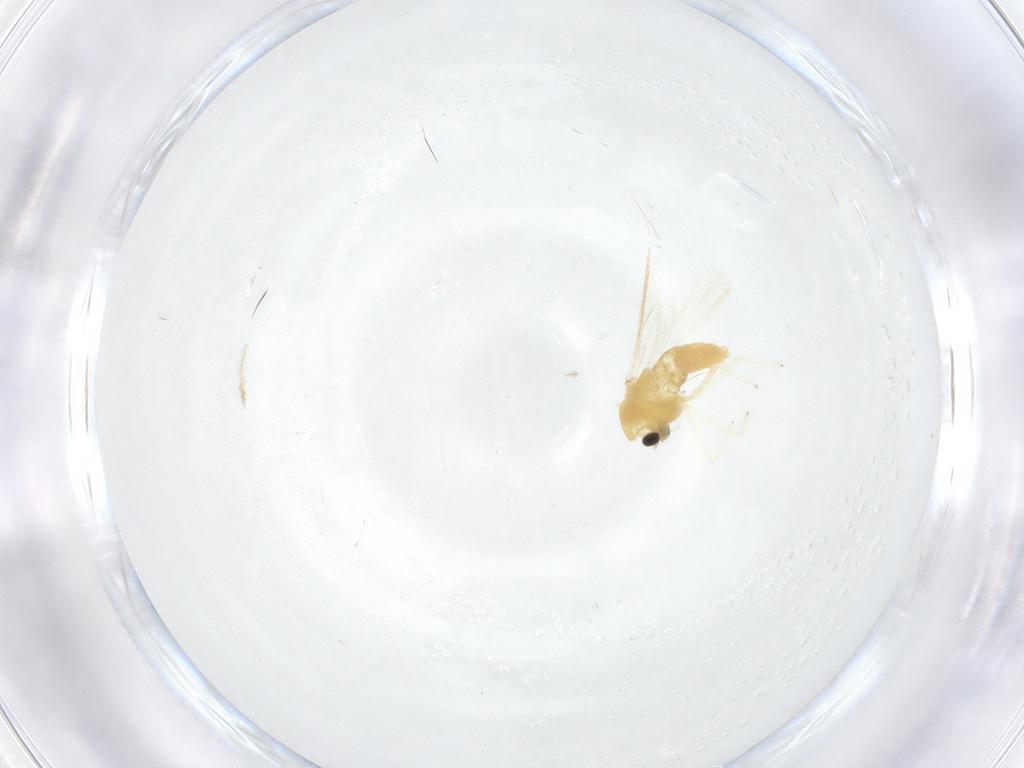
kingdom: Animalia
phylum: Arthropoda
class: Insecta
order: Diptera
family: Chironomidae
